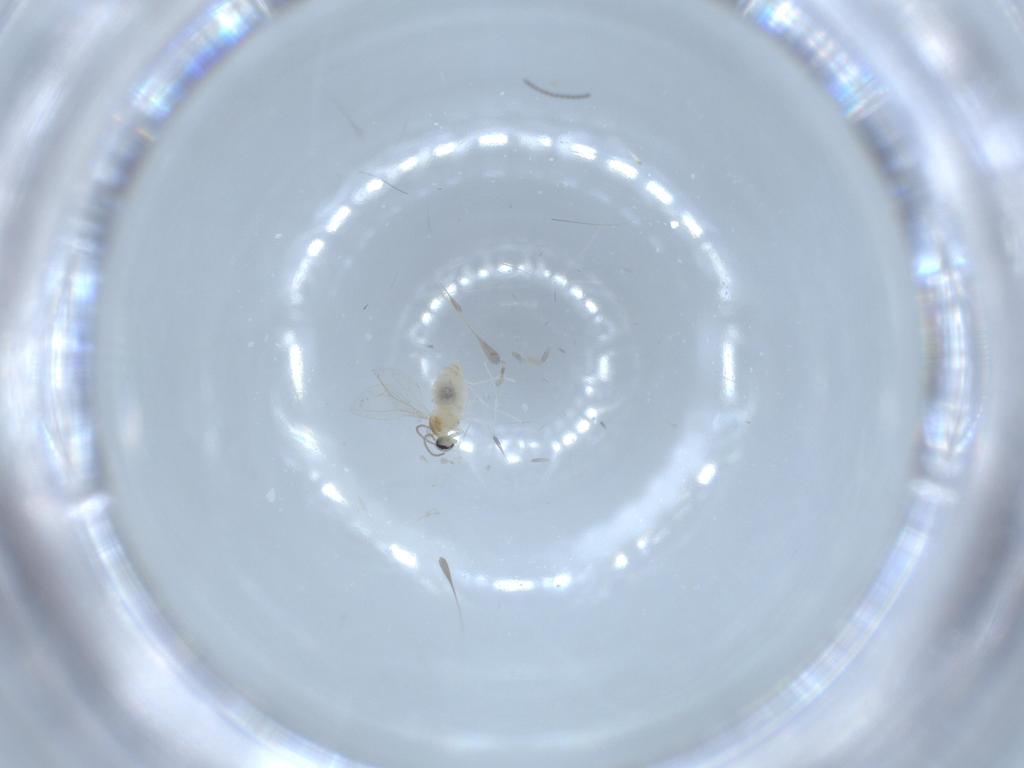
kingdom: Animalia
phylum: Arthropoda
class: Insecta
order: Diptera
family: Cecidomyiidae
